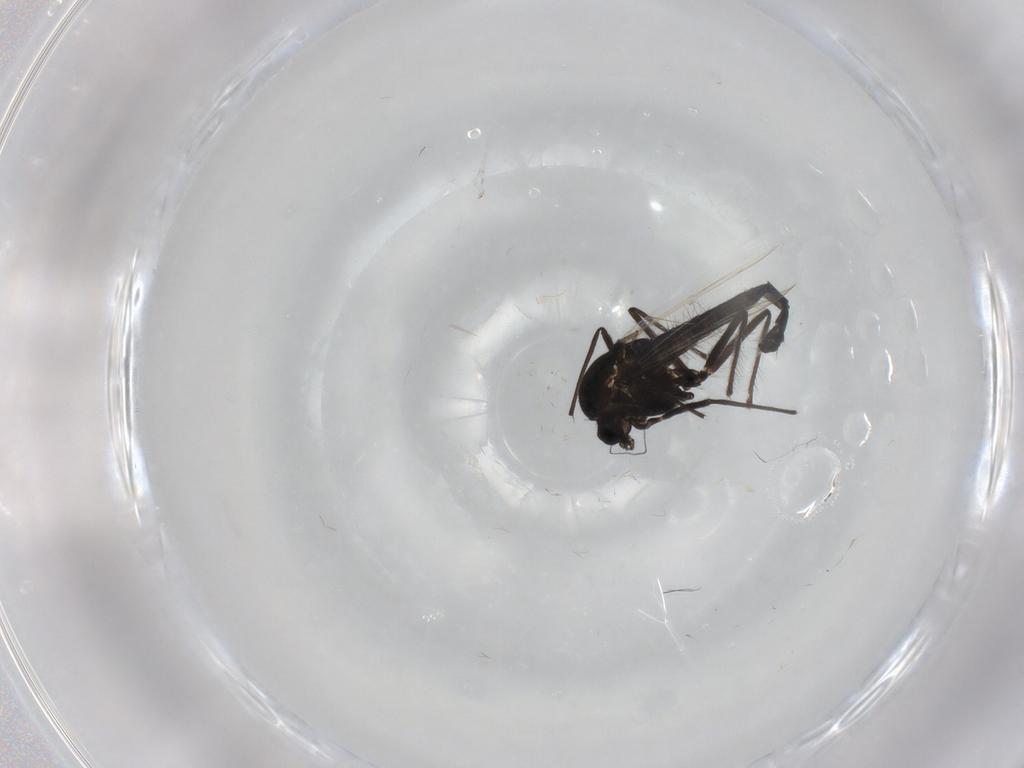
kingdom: Animalia
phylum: Arthropoda
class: Insecta
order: Diptera
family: Chironomidae
